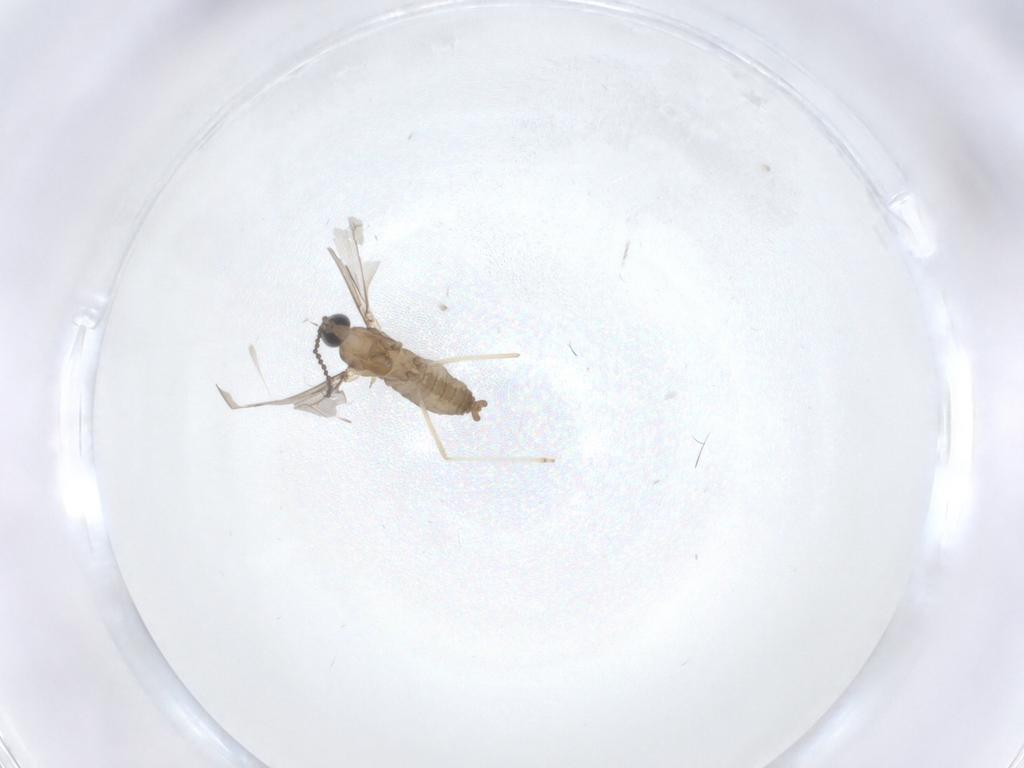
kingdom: Animalia
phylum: Arthropoda
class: Insecta
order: Diptera
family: Cecidomyiidae
